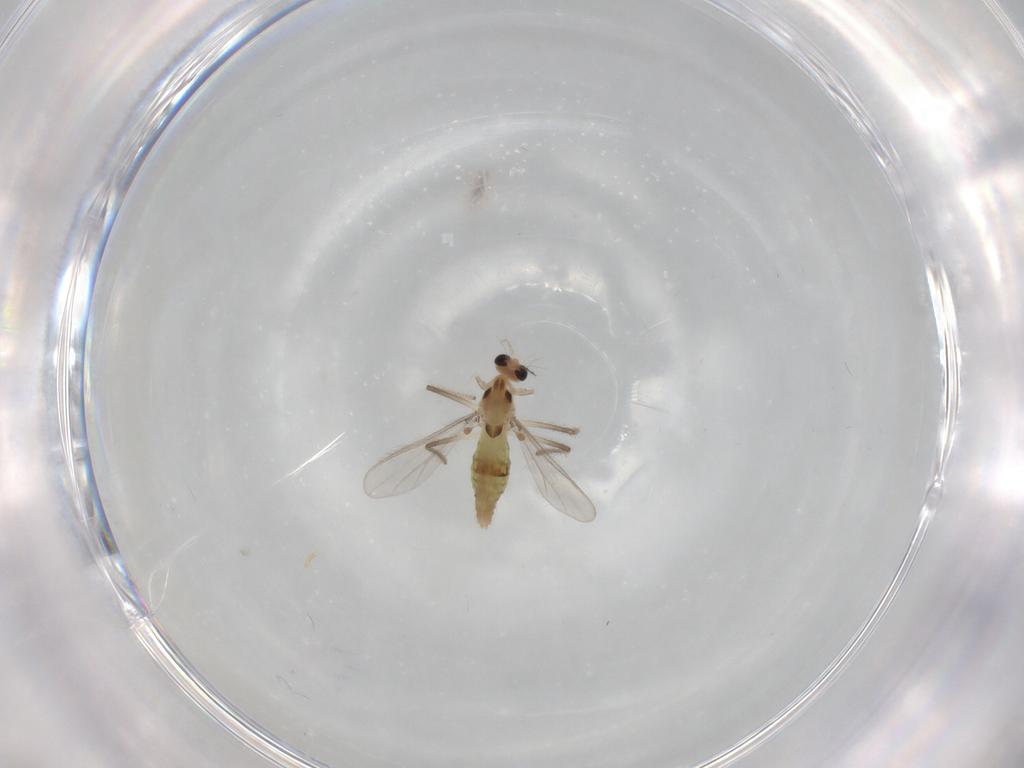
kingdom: Animalia
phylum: Arthropoda
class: Insecta
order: Diptera
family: Chironomidae
